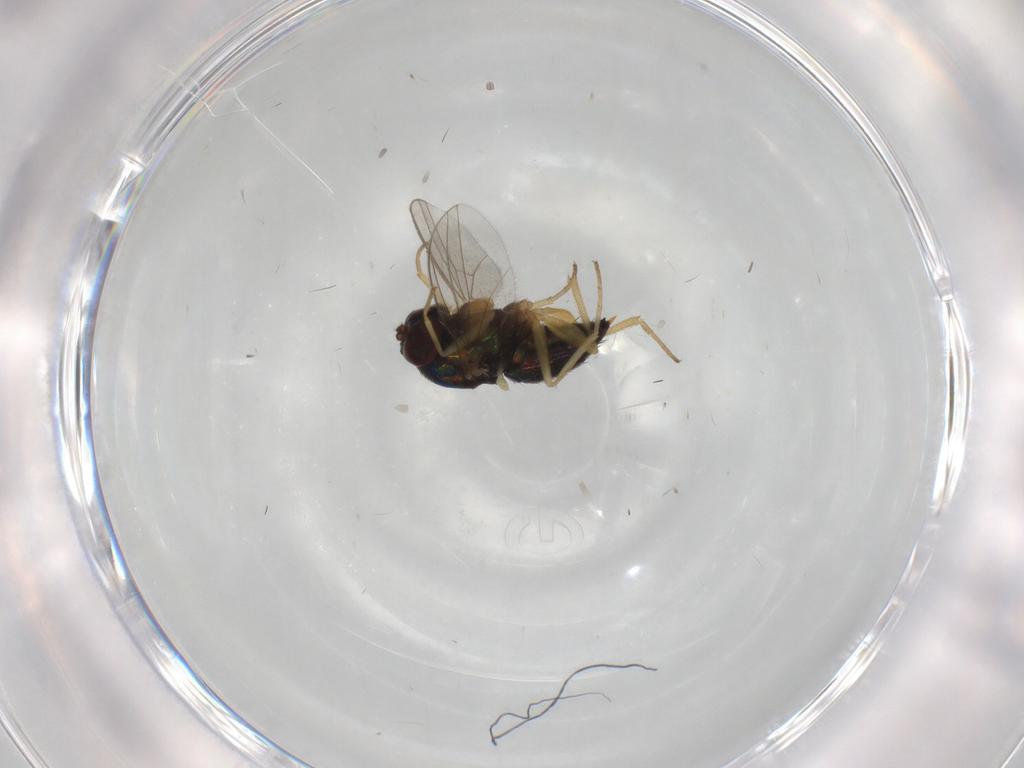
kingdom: Animalia
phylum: Arthropoda
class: Insecta
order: Diptera
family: Dolichopodidae
